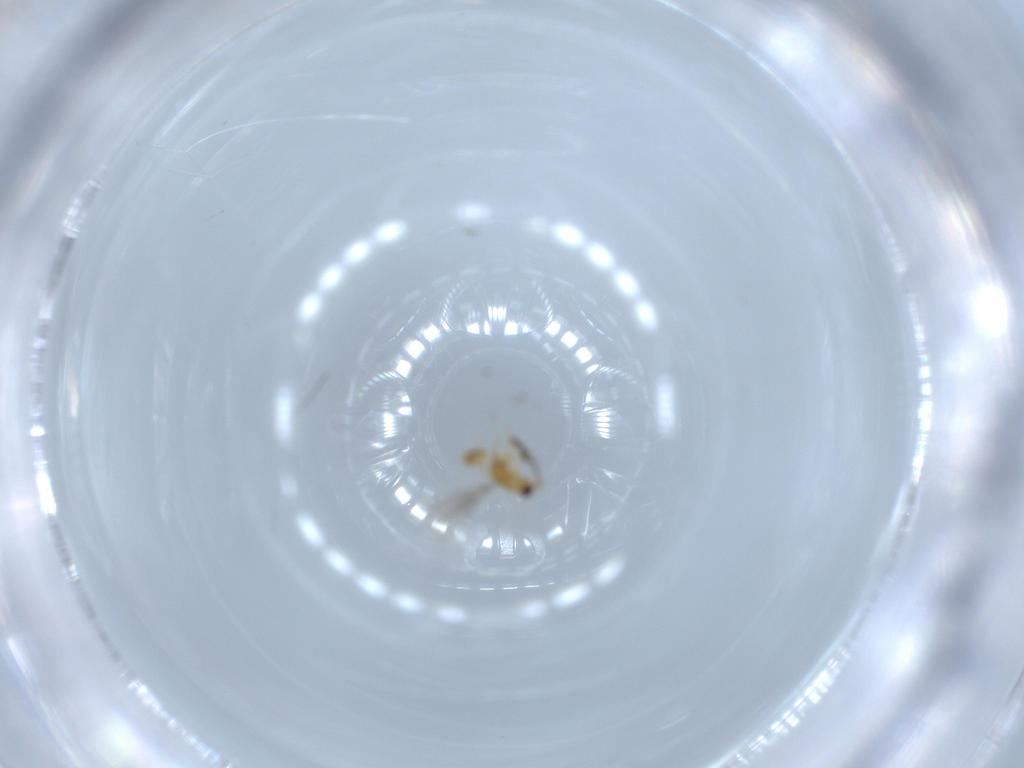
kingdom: Animalia
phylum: Arthropoda
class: Insecta
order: Hymenoptera
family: Mymaridae
